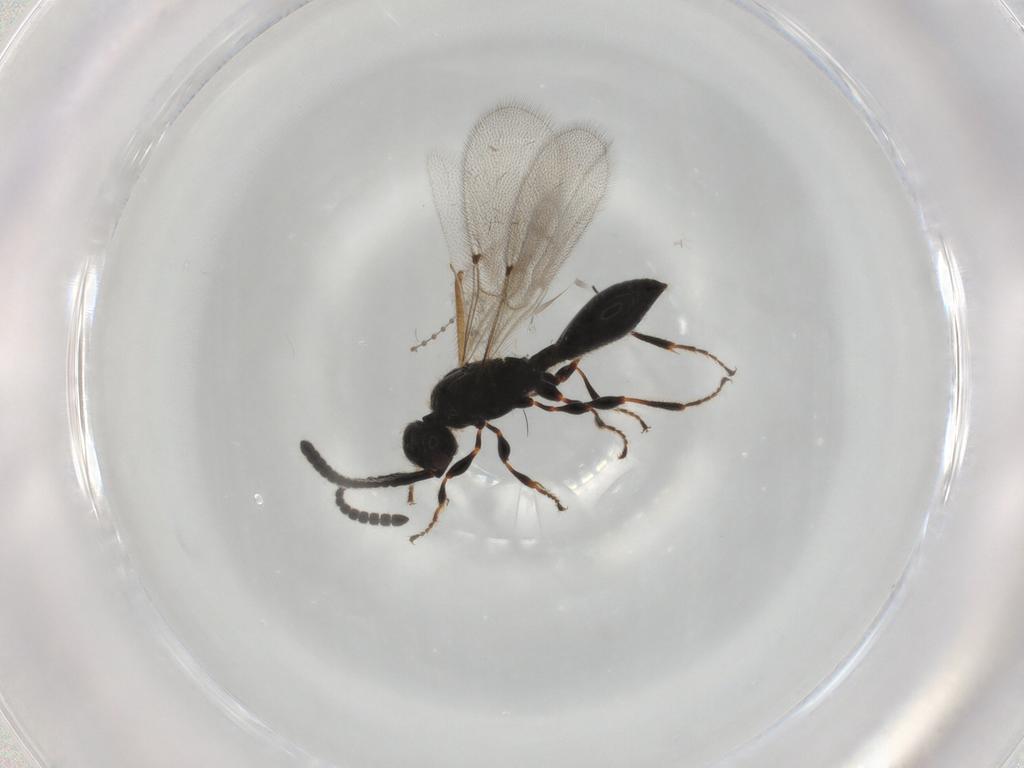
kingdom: Animalia
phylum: Arthropoda
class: Insecta
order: Hymenoptera
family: Diapriidae
